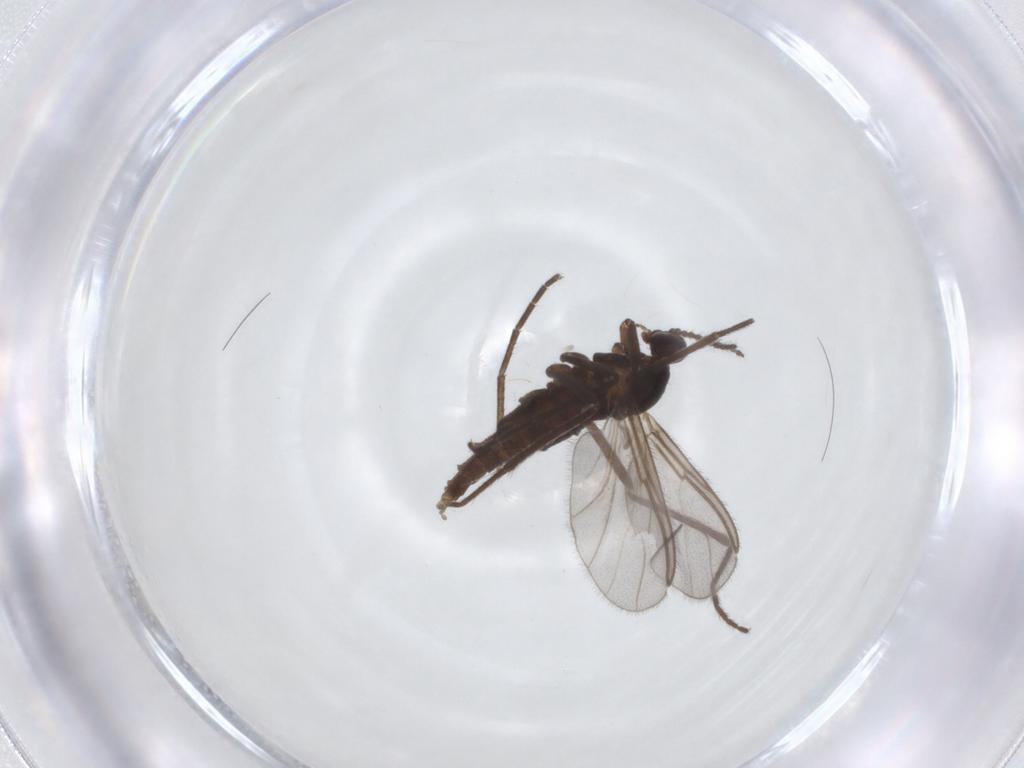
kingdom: Animalia
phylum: Arthropoda
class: Insecta
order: Diptera
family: Cecidomyiidae
